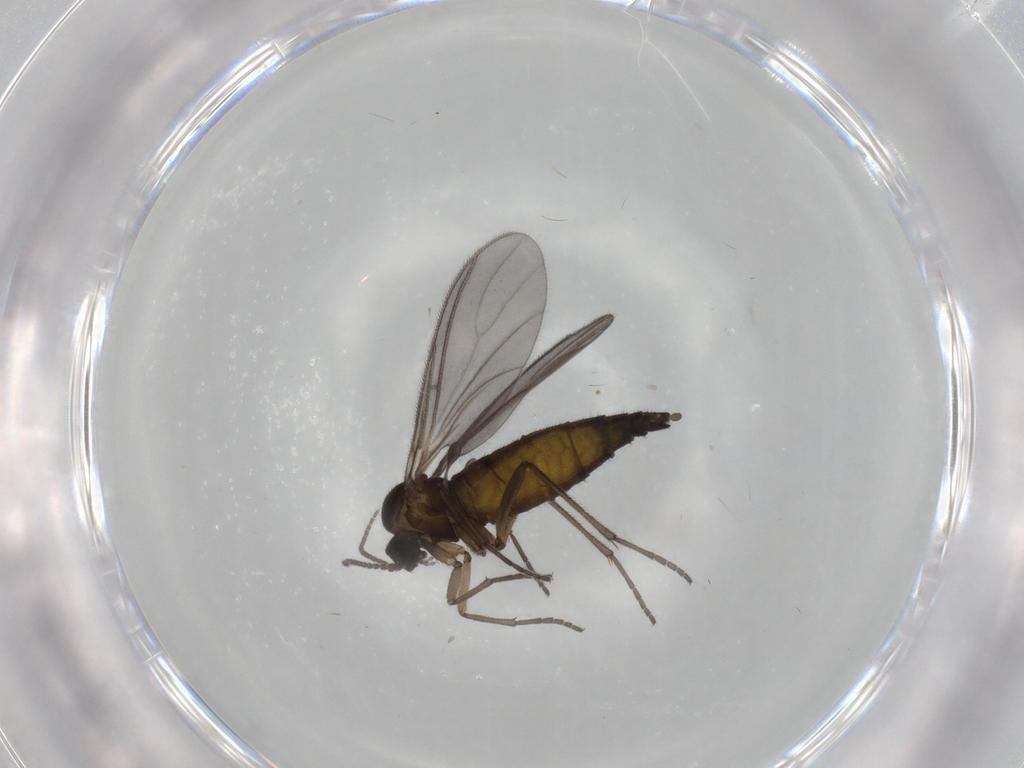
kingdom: Animalia
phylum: Arthropoda
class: Insecta
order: Diptera
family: Sciaridae
